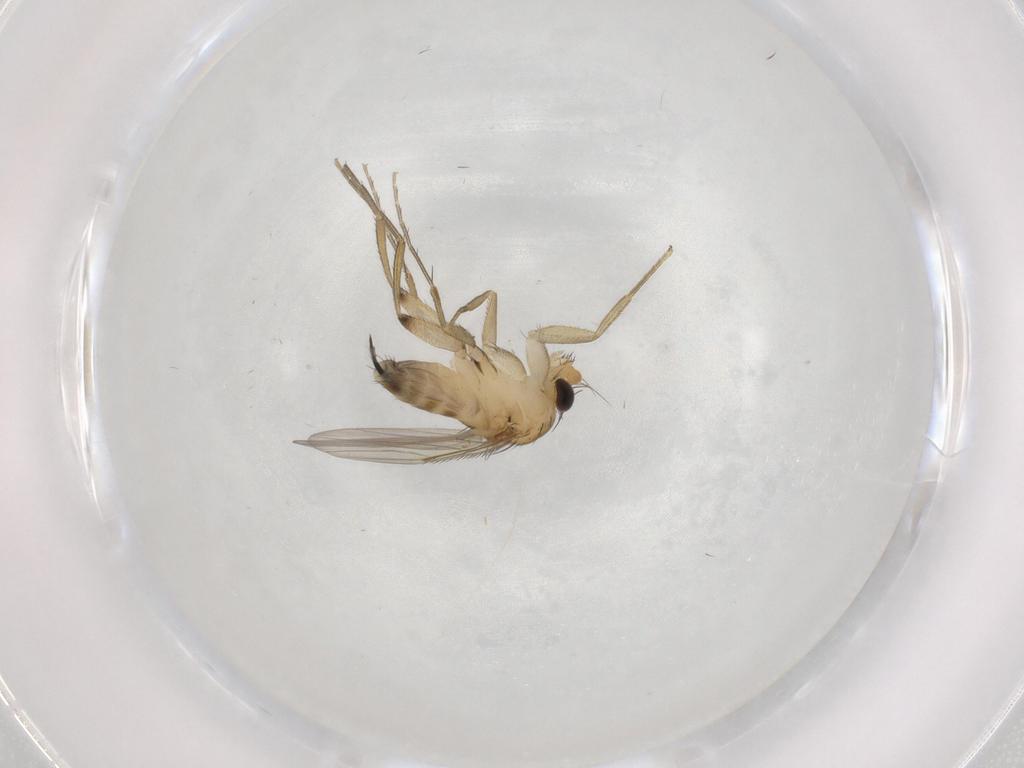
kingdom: Animalia
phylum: Arthropoda
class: Insecta
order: Diptera
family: Phoridae
